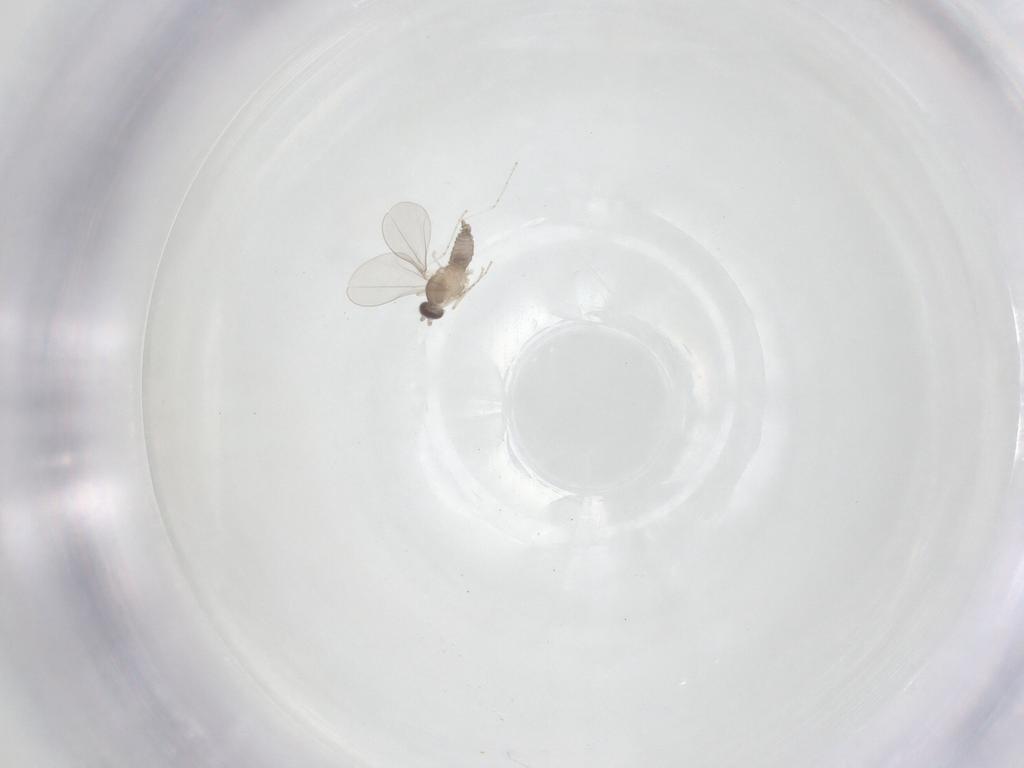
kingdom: Animalia
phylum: Arthropoda
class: Insecta
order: Diptera
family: Cecidomyiidae
